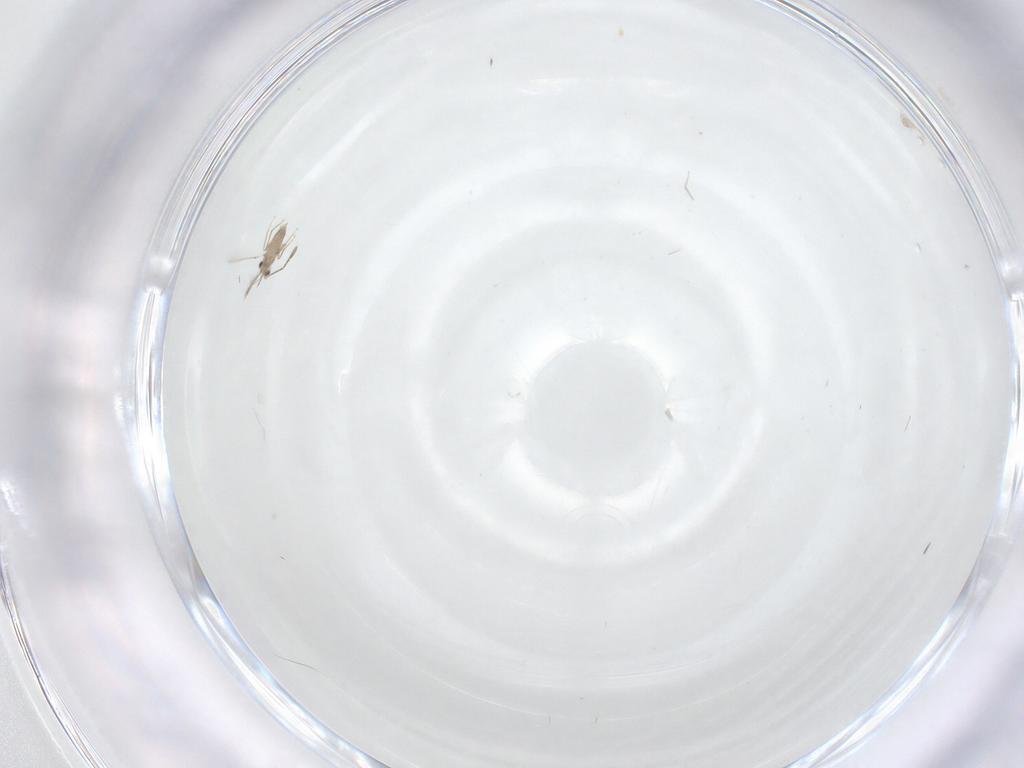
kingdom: Animalia
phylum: Arthropoda
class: Insecta
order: Hymenoptera
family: Mymaridae
